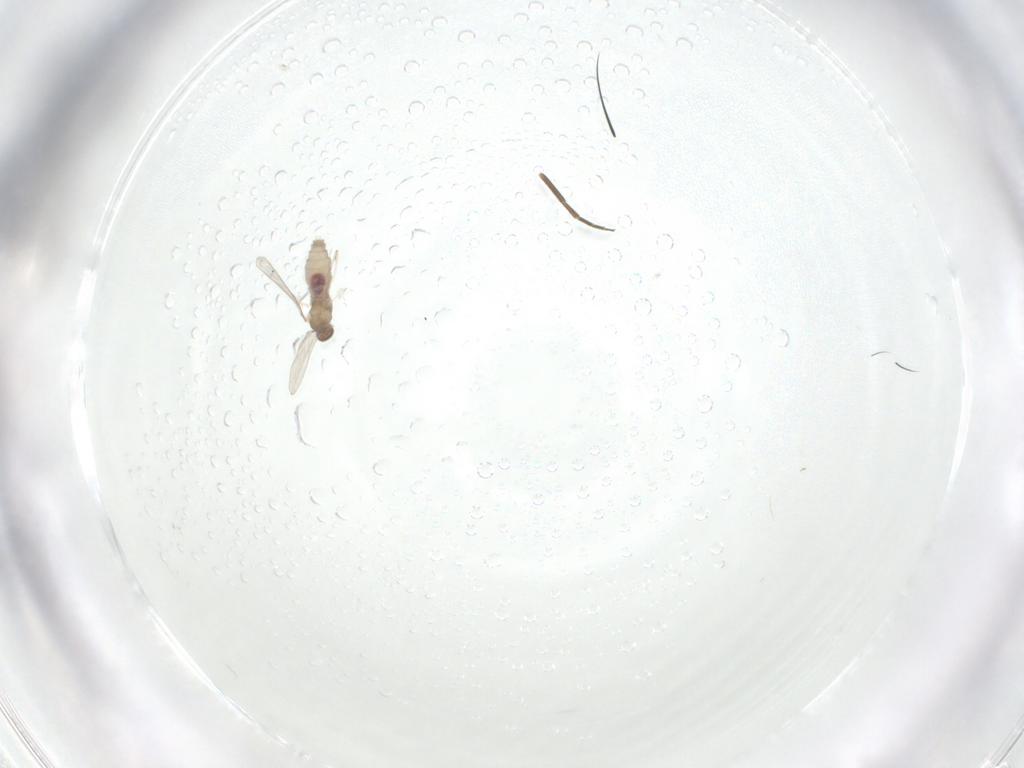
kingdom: Animalia
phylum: Arthropoda
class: Insecta
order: Diptera
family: Cecidomyiidae
